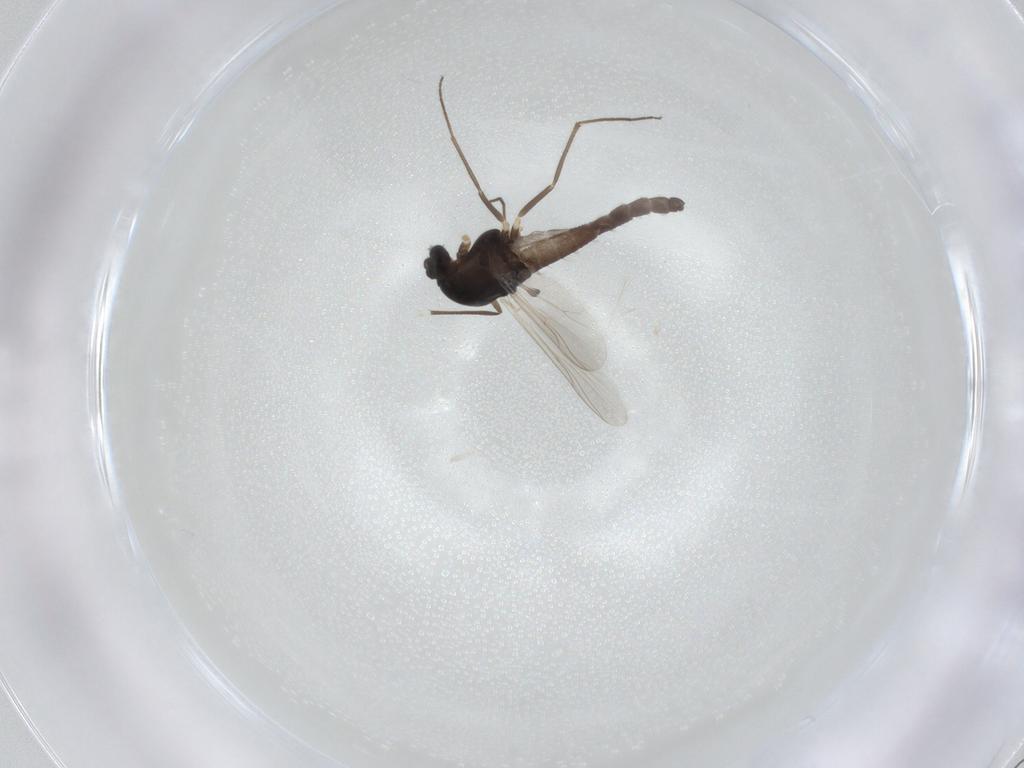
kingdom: Animalia
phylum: Arthropoda
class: Insecta
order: Diptera
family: Chironomidae
